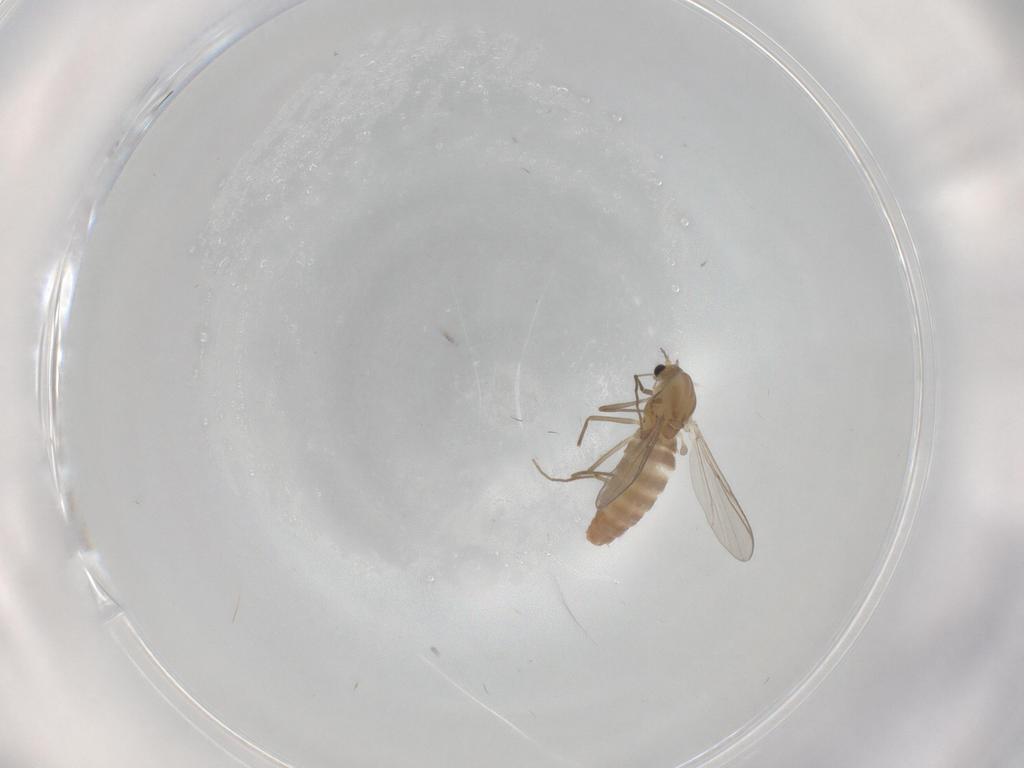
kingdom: Animalia
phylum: Arthropoda
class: Insecta
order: Diptera
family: Chironomidae
